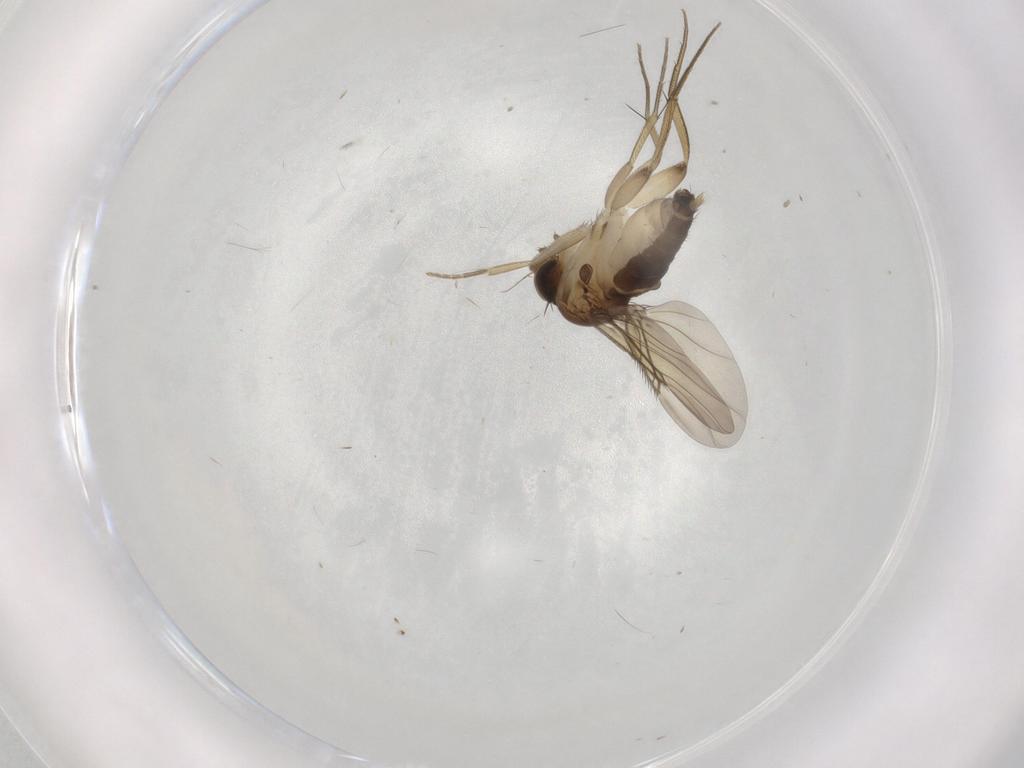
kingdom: Animalia
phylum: Arthropoda
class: Insecta
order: Diptera
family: Phoridae
